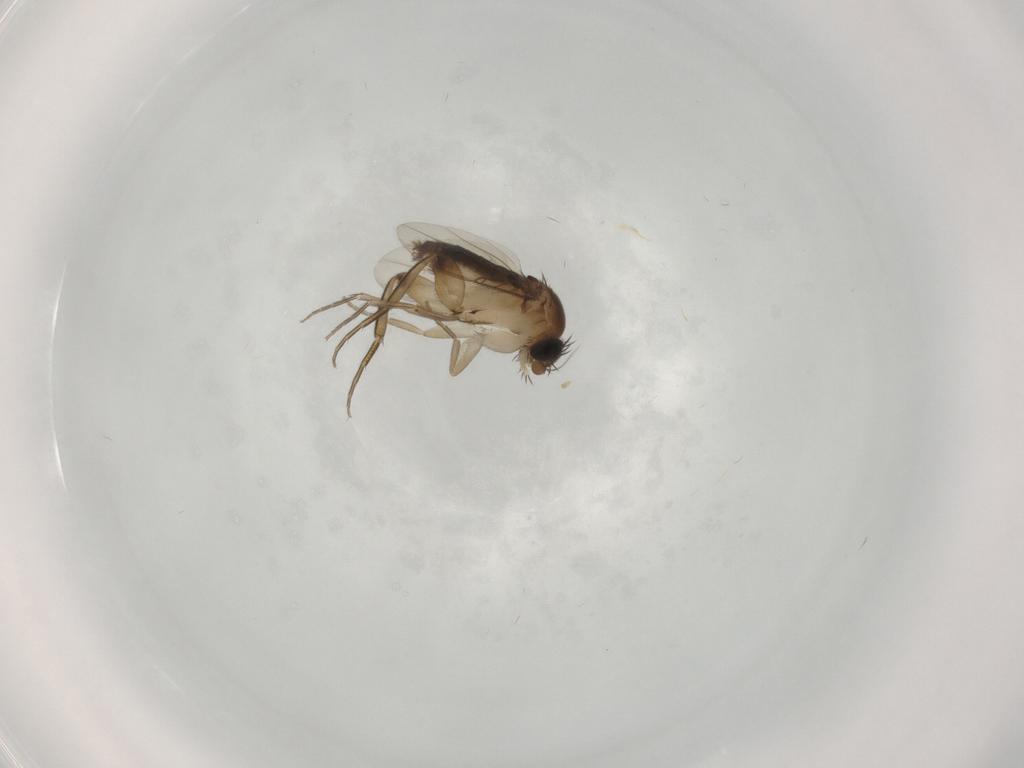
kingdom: Animalia
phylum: Arthropoda
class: Insecta
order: Diptera
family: Phoridae
